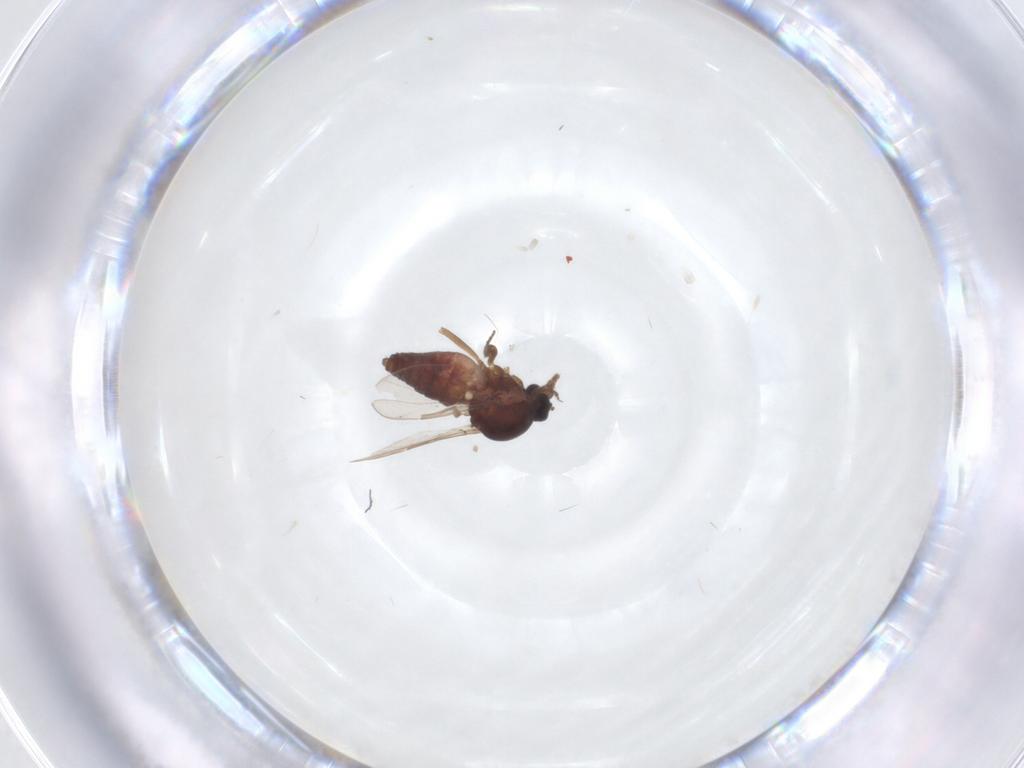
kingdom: Animalia
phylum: Arthropoda
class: Insecta
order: Diptera
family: Ceratopogonidae
